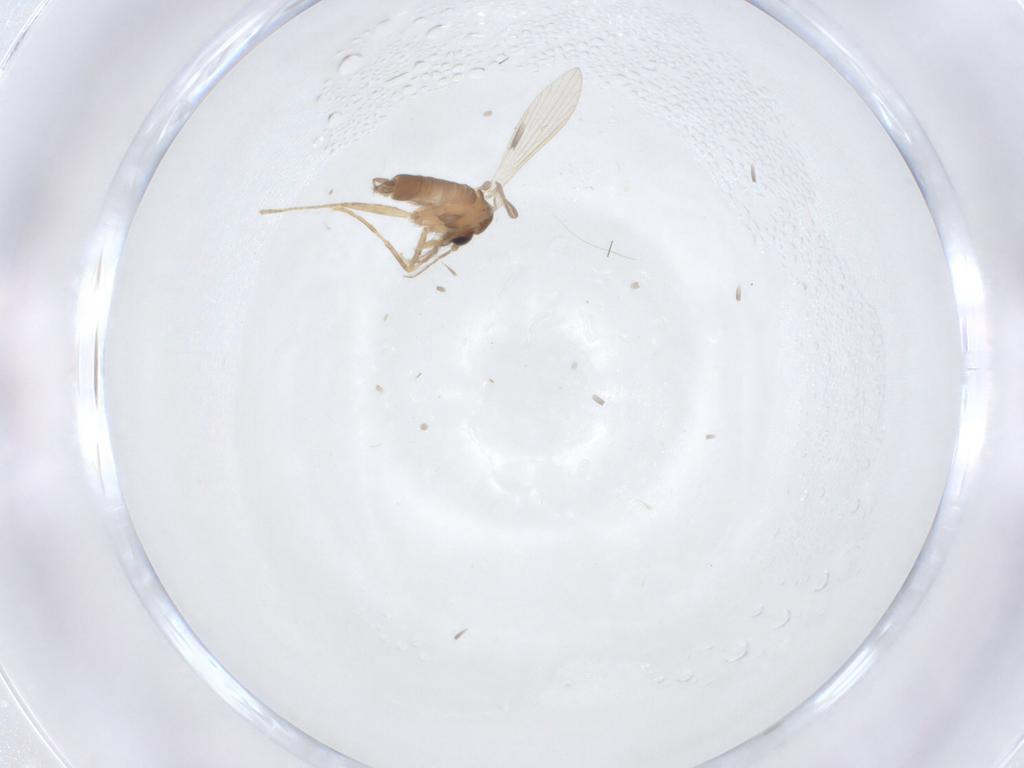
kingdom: Animalia
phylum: Arthropoda
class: Insecta
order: Diptera
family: Psychodidae
